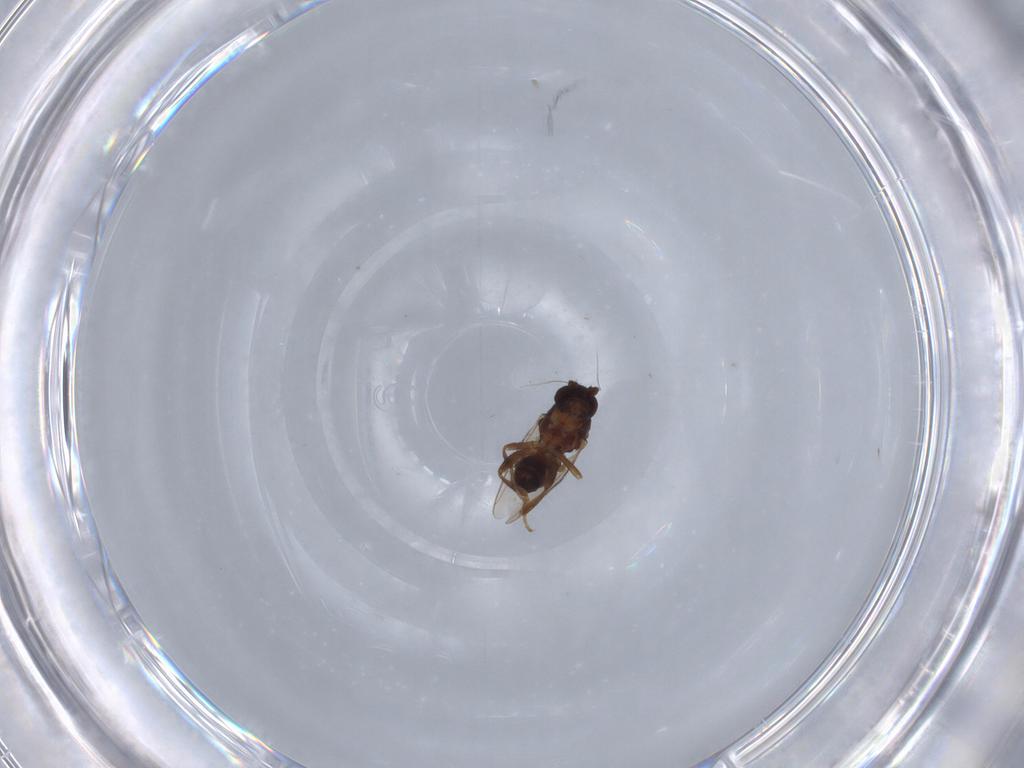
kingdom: Animalia
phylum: Arthropoda
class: Insecta
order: Diptera
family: Sphaeroceridae
